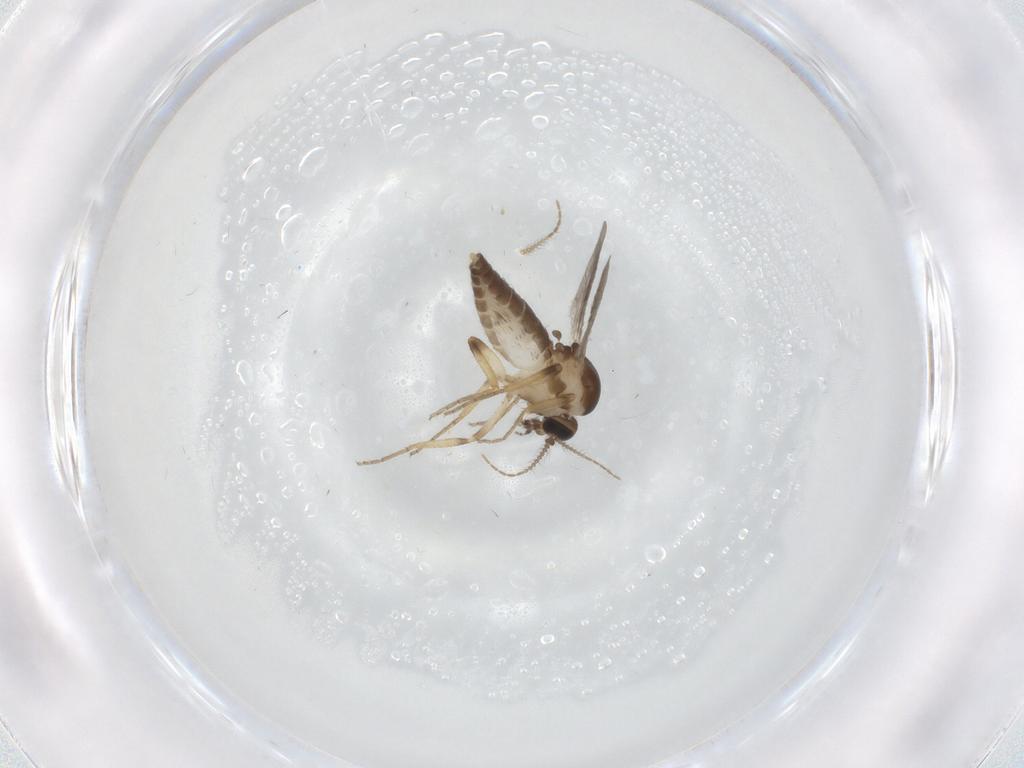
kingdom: Animalia
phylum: Arthropoda
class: Insecta
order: Diptera
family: Ceratopogonidae
